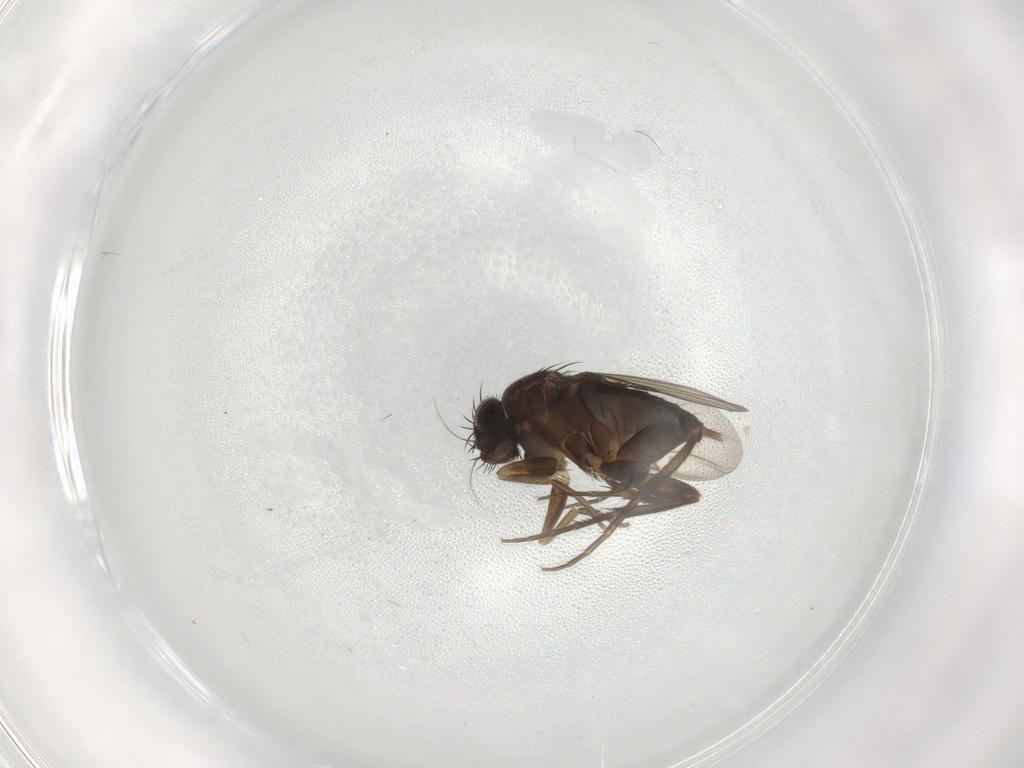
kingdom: Animalia
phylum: Arthropoda
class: Insecta
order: Diptera
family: Phoridae
